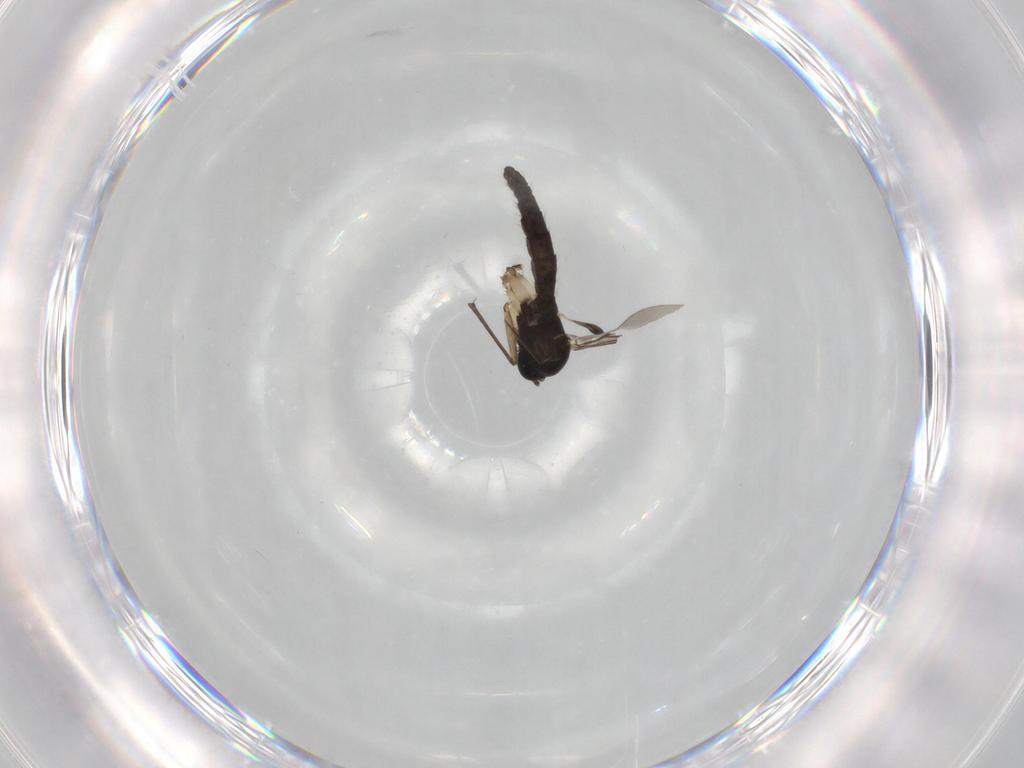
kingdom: Animalia
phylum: Arthropoda
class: Insecta
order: Diptera
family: Sciaridae
